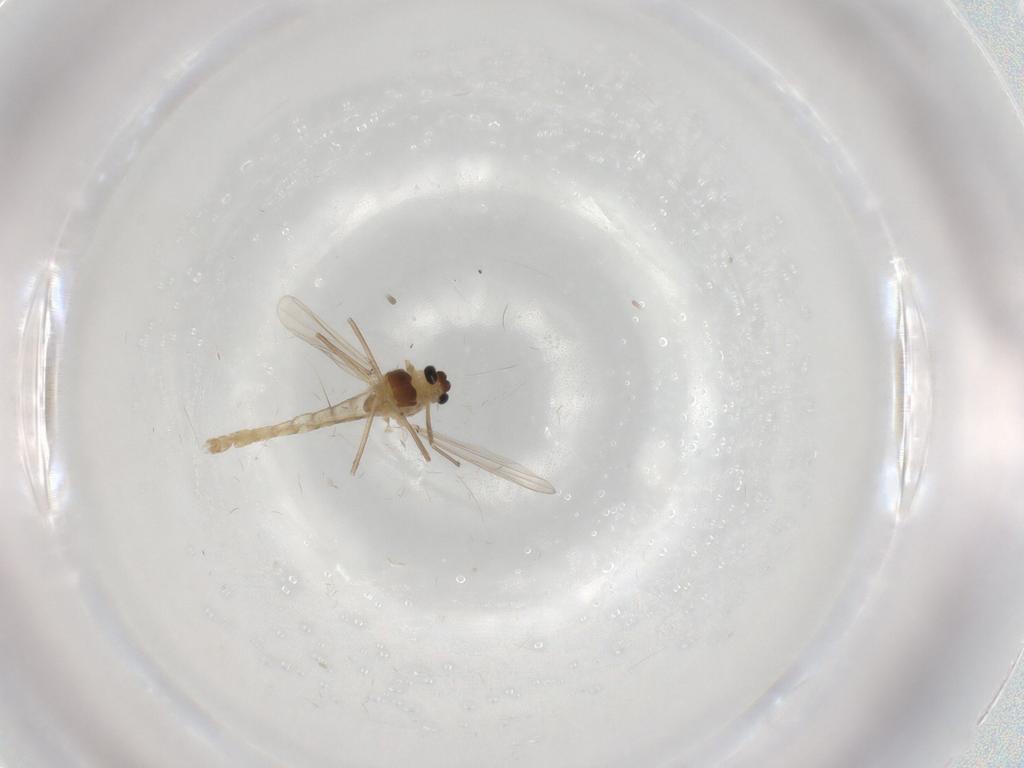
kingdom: Animalia
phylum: Arthropoda
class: Insecta
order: Diptera
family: Chironomidae
